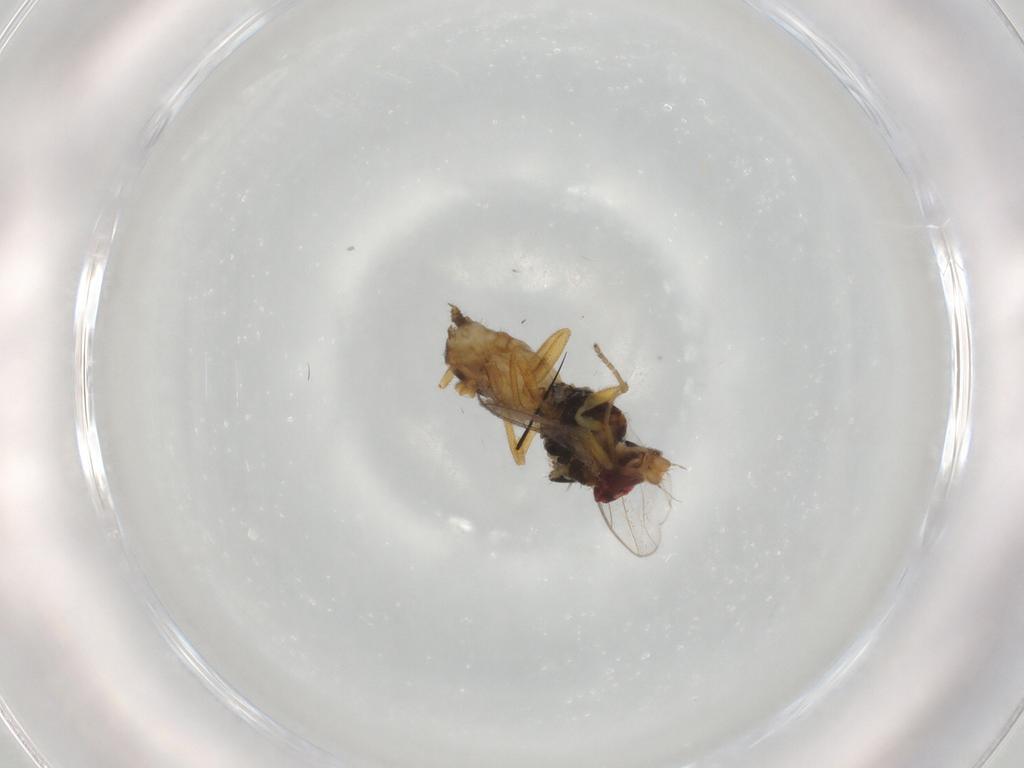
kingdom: Animalia
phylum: Arthropoda
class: Insecta
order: Diptera
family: Chloropidae
